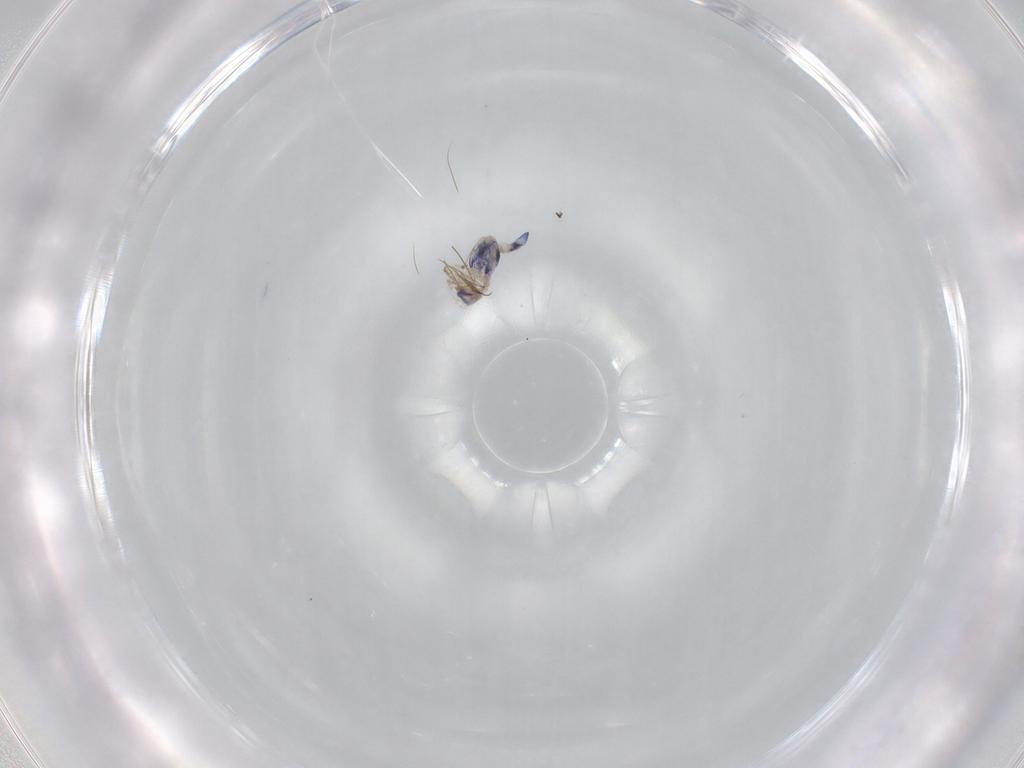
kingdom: Animalia
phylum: Arthropoda
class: Collembola
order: Entomobryomorpha
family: Entomobryidae
